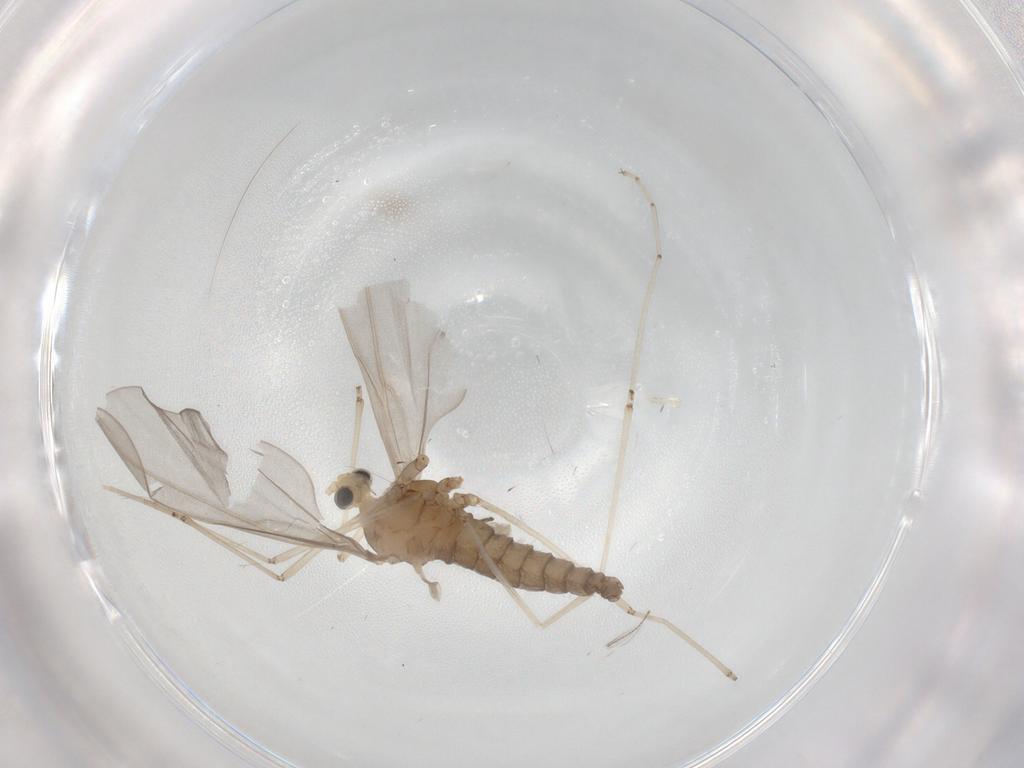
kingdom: Animalia
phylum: Arthropoda
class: Insecta
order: Diptera
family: Cecidomyiidae
